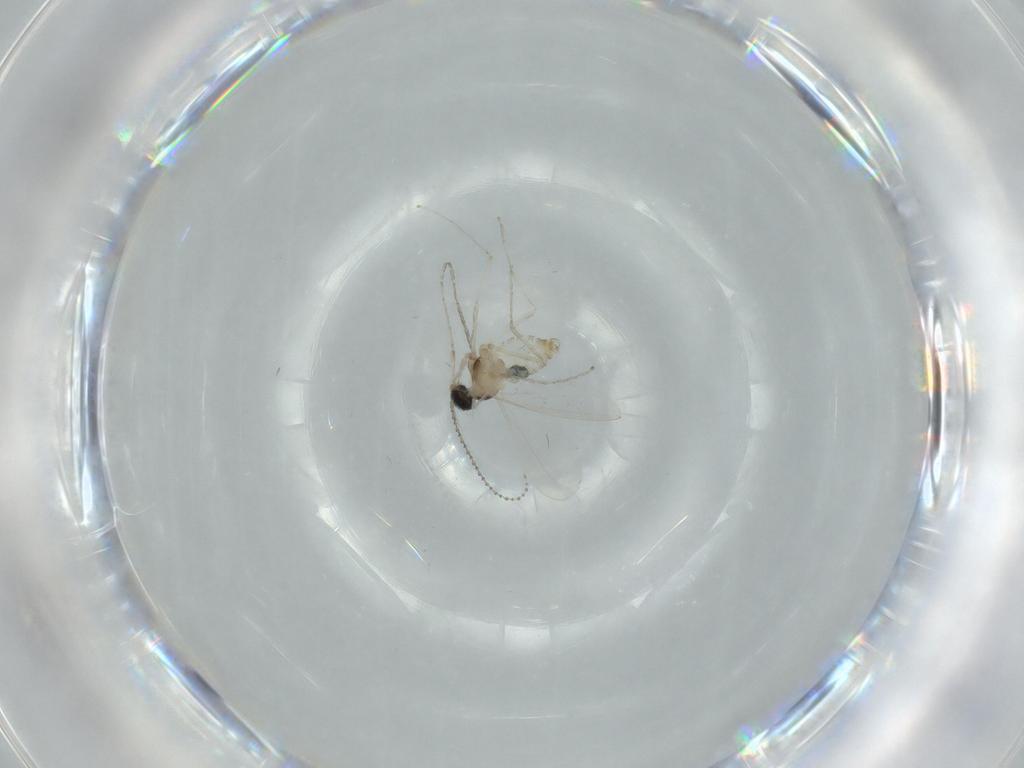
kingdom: Animalia
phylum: Arthropoda
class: Insecta
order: Diptera
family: Cecidomyiidae
